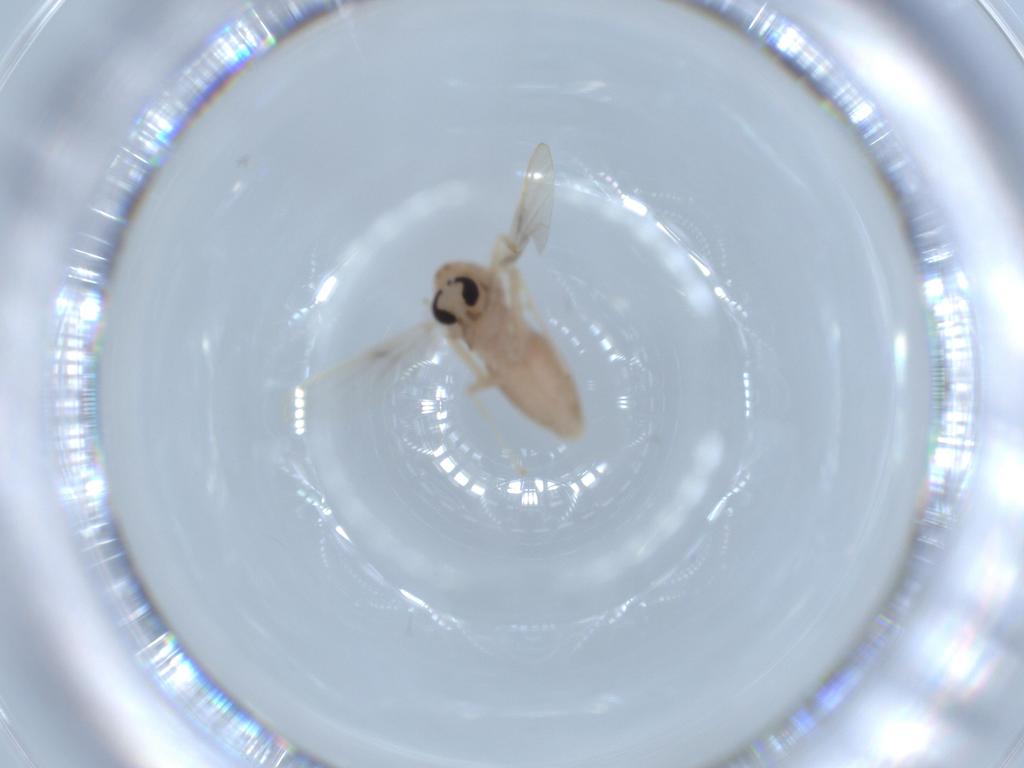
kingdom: Animalia
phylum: Arthropoda
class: Insecta
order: Diptera
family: Chironomidae
